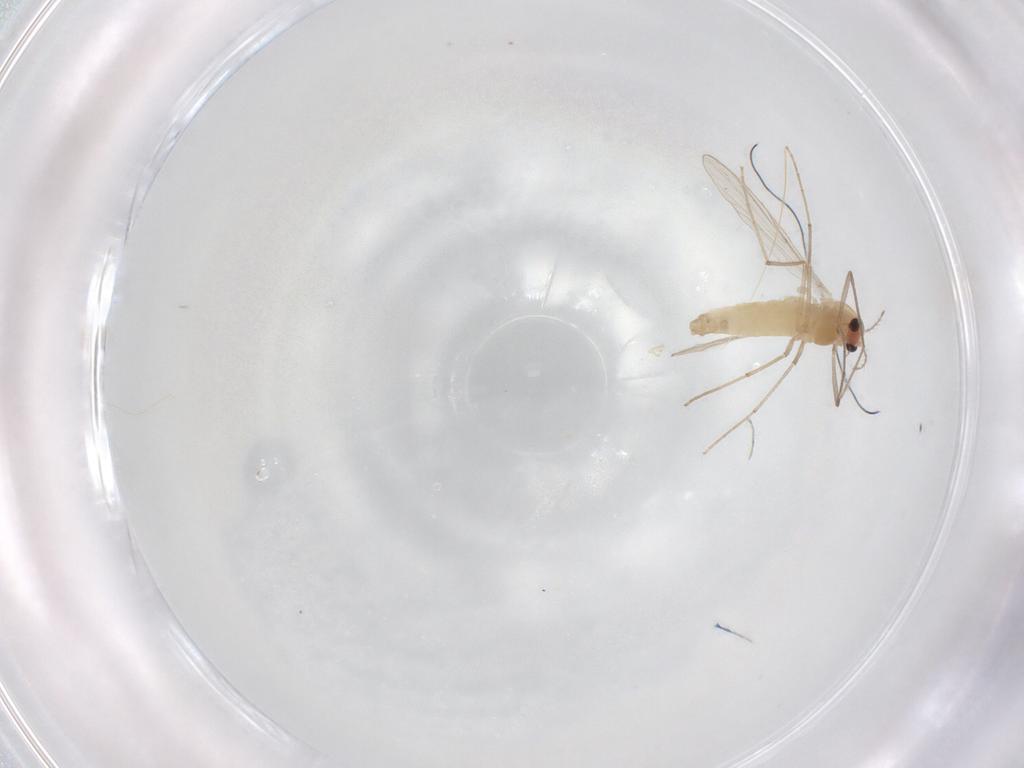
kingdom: Animalia
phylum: Arthropoda
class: Insecta
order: Diptera
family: Chironomidae
